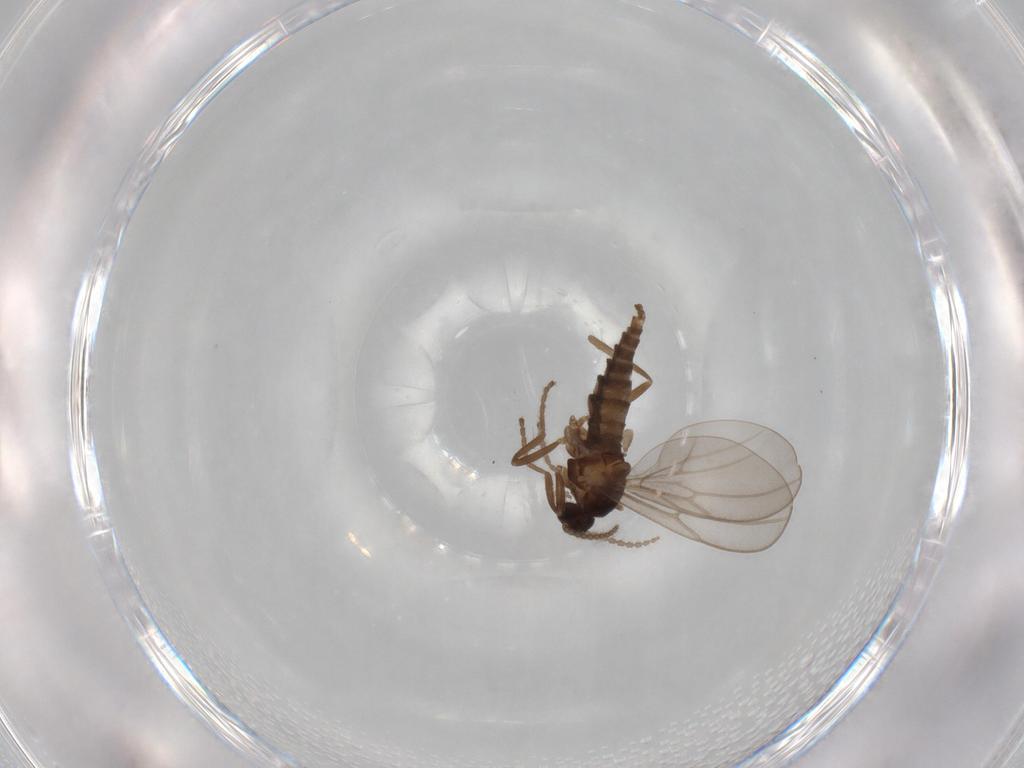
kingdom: Animalia
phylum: Arthropoda
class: Insecta
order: Diptera
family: Cecidomyiidae
